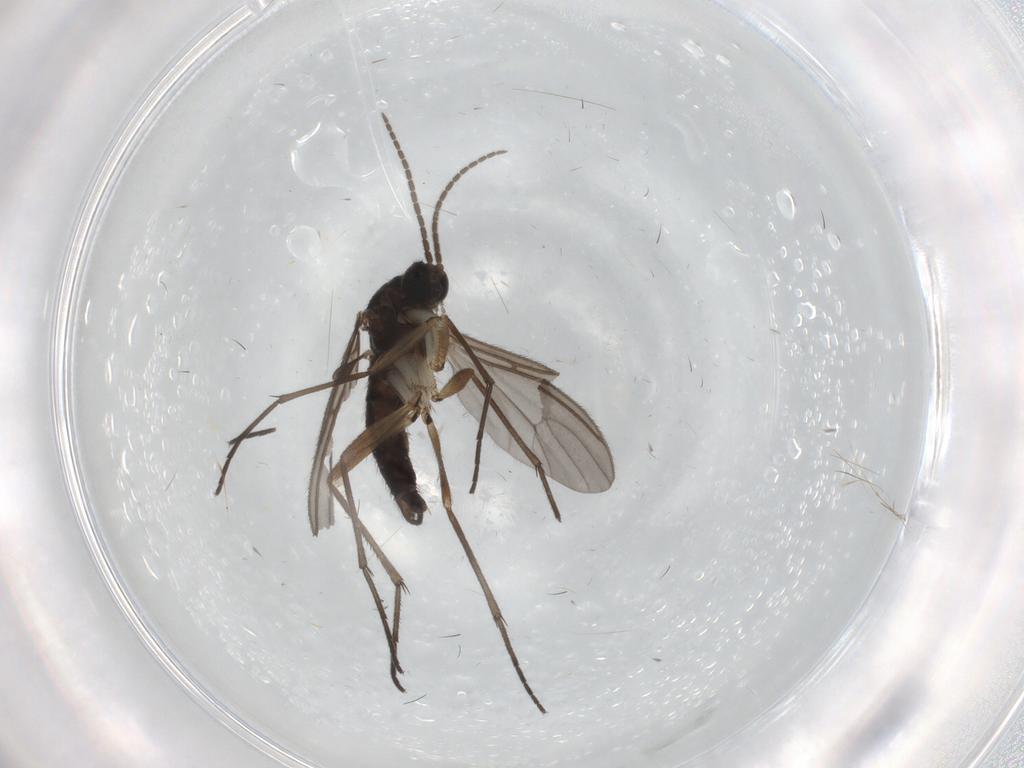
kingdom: Animalia
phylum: Arthropoda
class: Insecta
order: Diptera
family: Sciaridae
